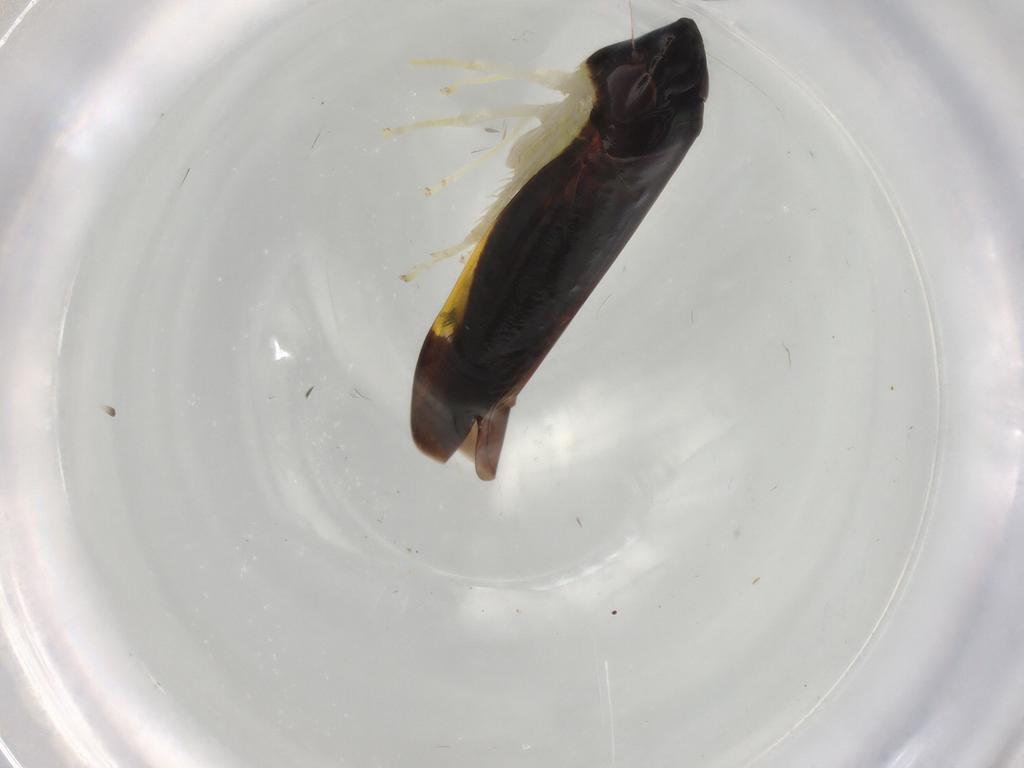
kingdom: Animalia
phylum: Arthropoda
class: Insecta
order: Hemiptera
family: Cicadellidae
